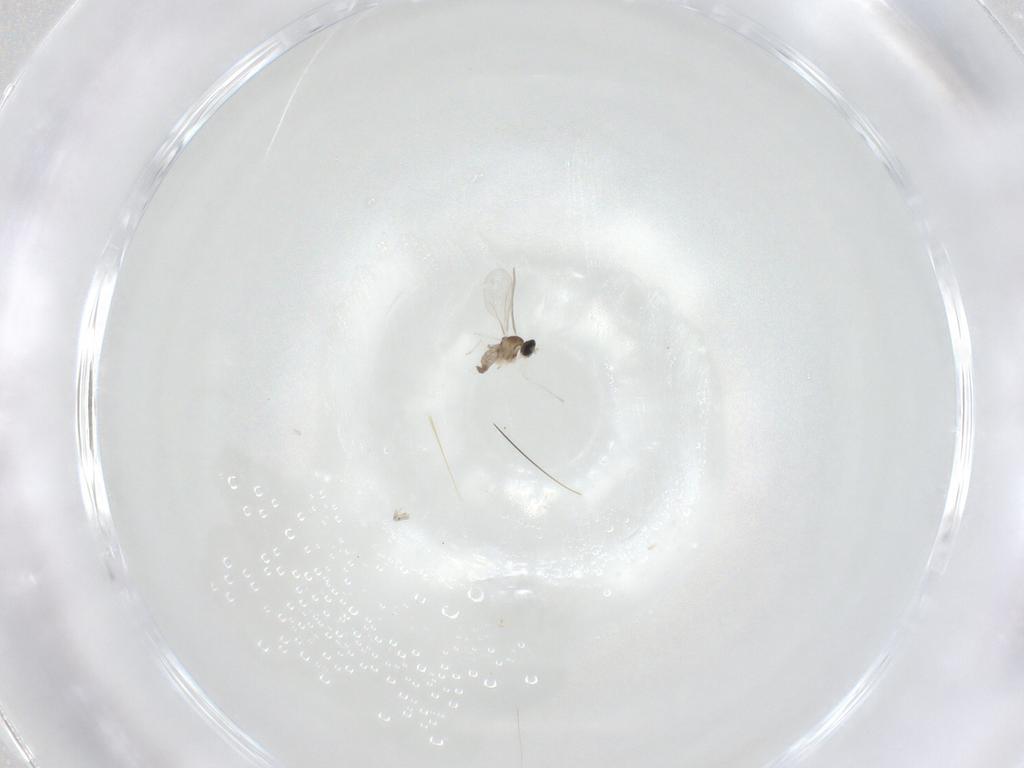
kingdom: Animalia
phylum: Arthropoda
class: Insecta
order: Diptera
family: Cecidomyiidae
